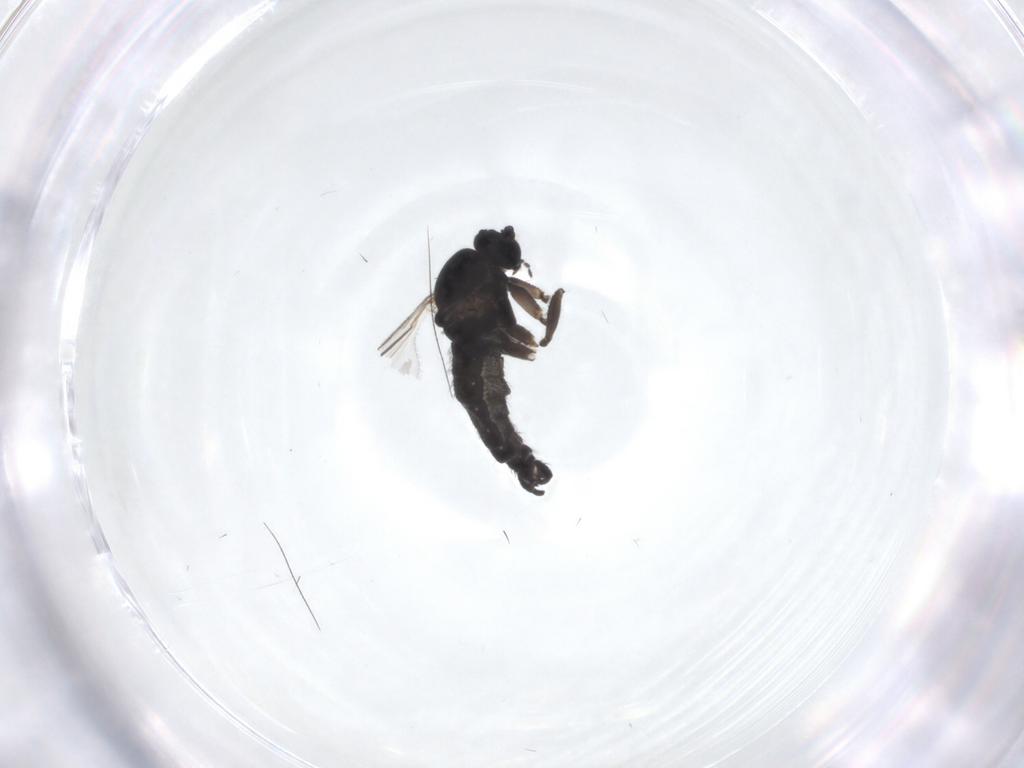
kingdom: Animalia
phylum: Arthropoda
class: Insecta
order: Diptera
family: Sciaridae
